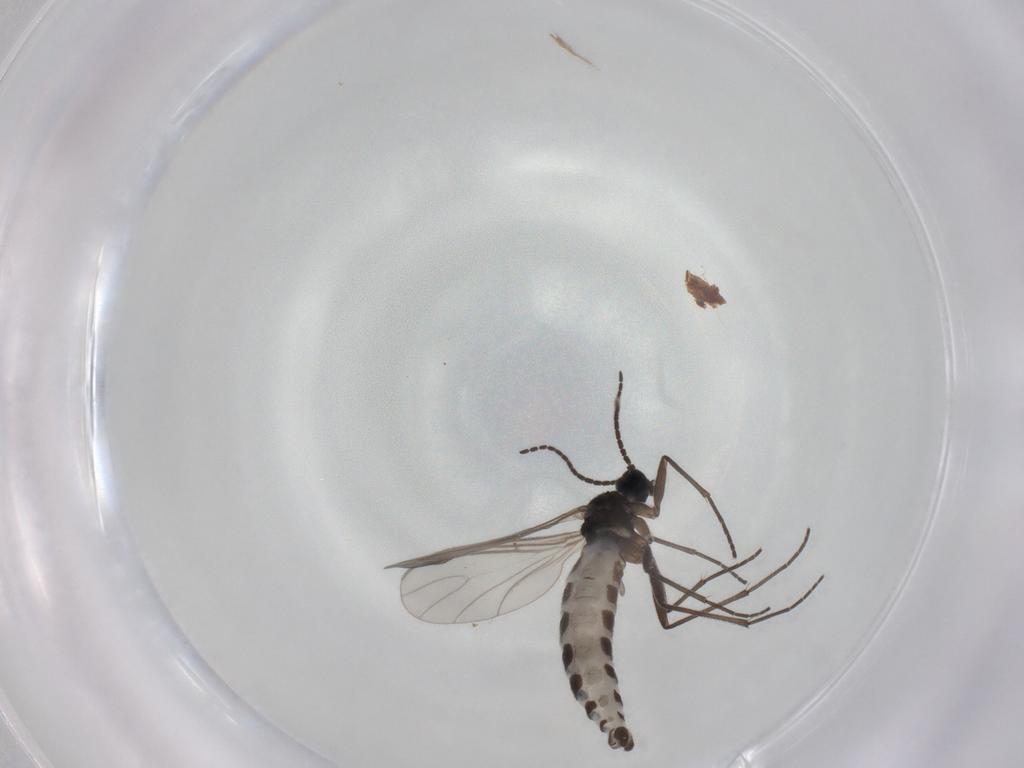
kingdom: Animalia
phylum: Arthropoda
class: Insecta
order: Diptera
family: Sciaridae
